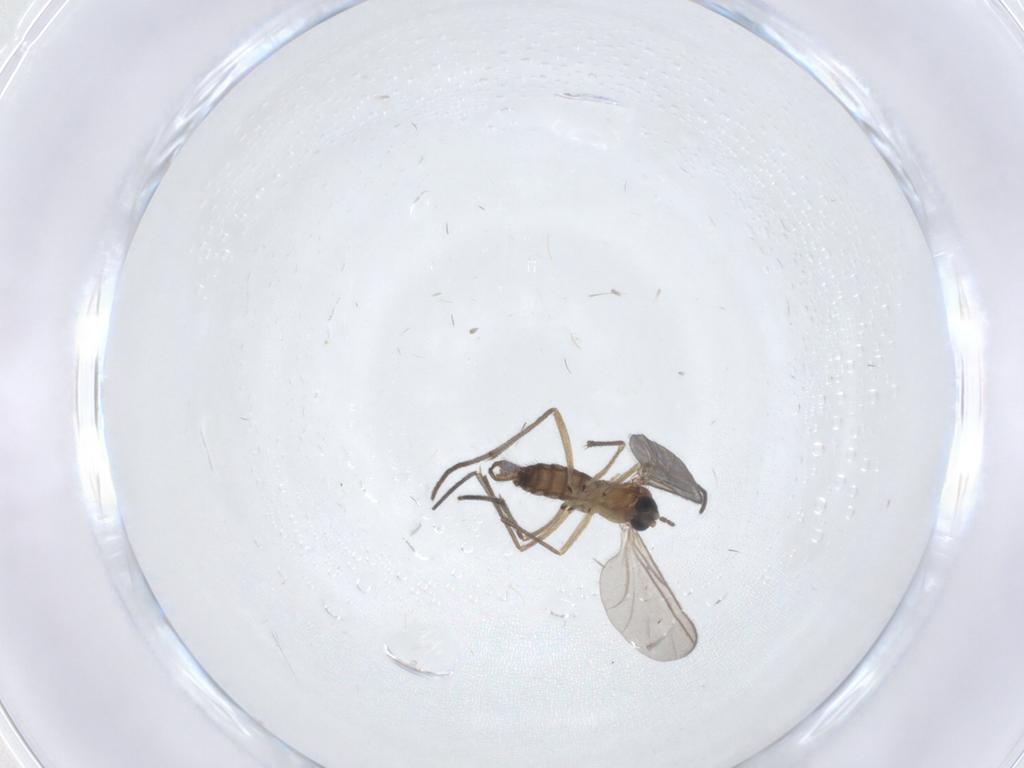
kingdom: Animalia
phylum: Arthropoda
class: Insecta
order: Diptera
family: Sciaridae
